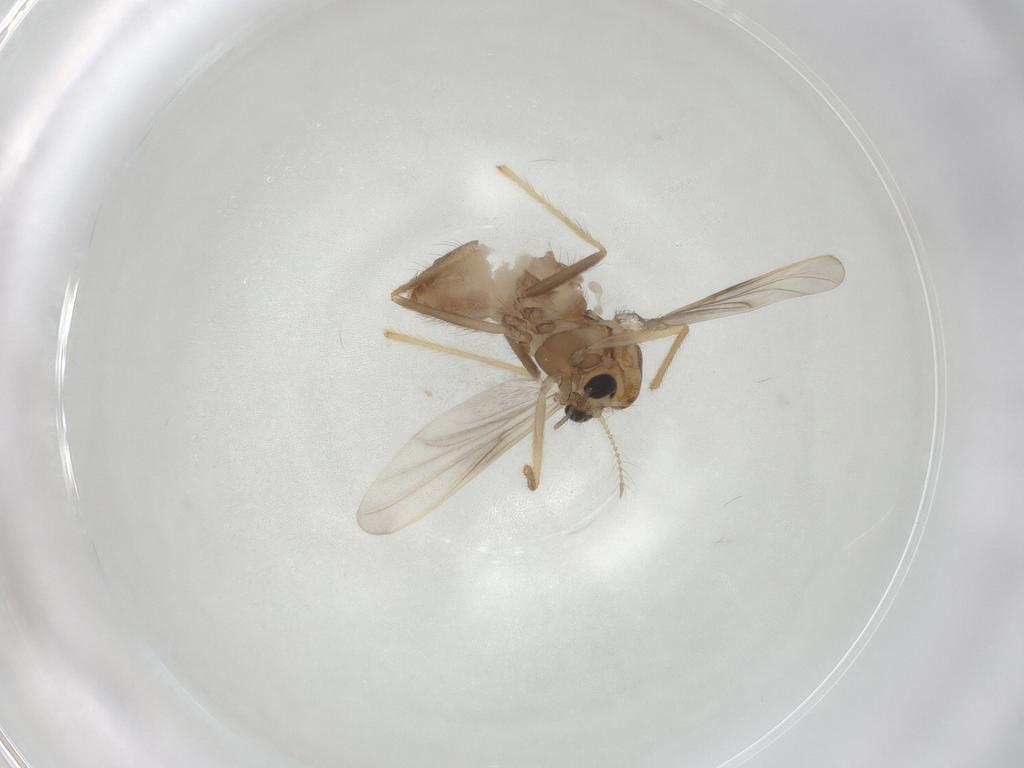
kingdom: Animalia
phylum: Arthropoda
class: Insecta
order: Diptera
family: Chironomidae
